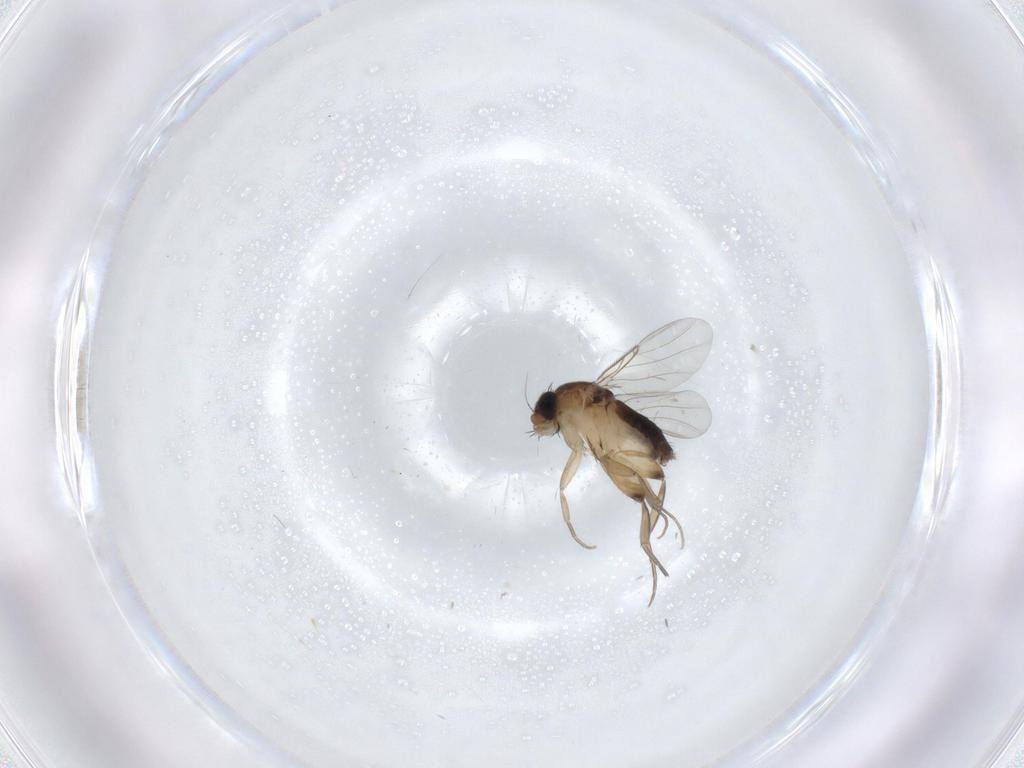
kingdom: Animalia
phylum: Arthropoda
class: Insecta
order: Diptera
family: Phoridae
